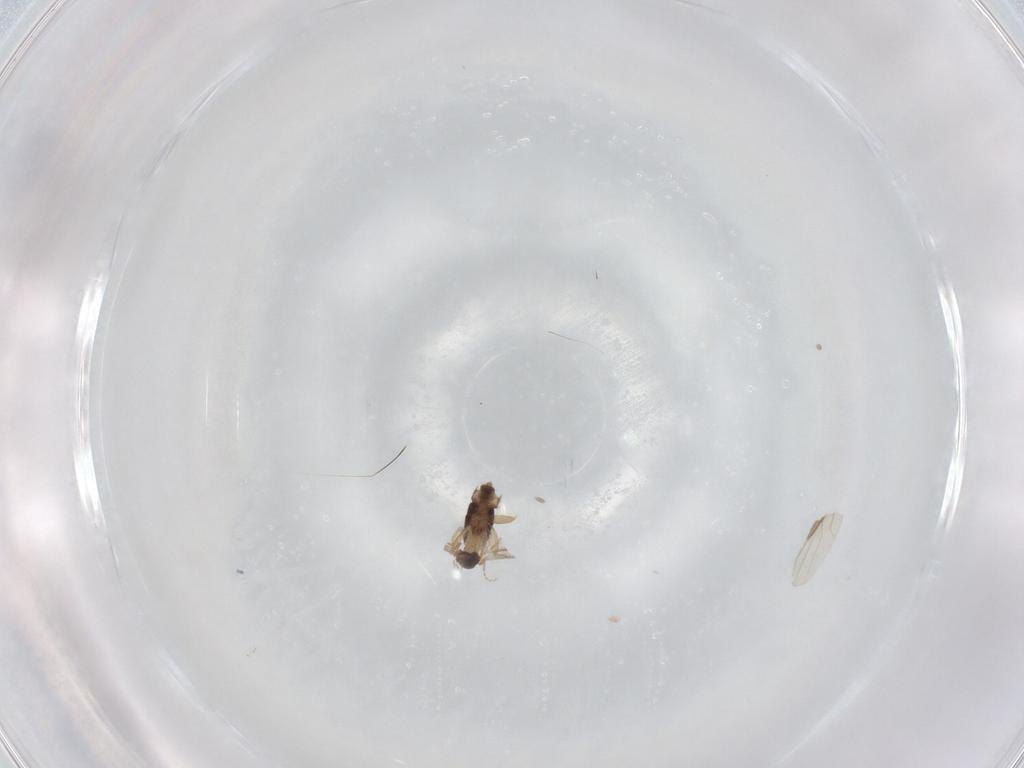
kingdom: Animalia
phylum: Arthropoda
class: Insecta
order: Diptera
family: Phoridae
